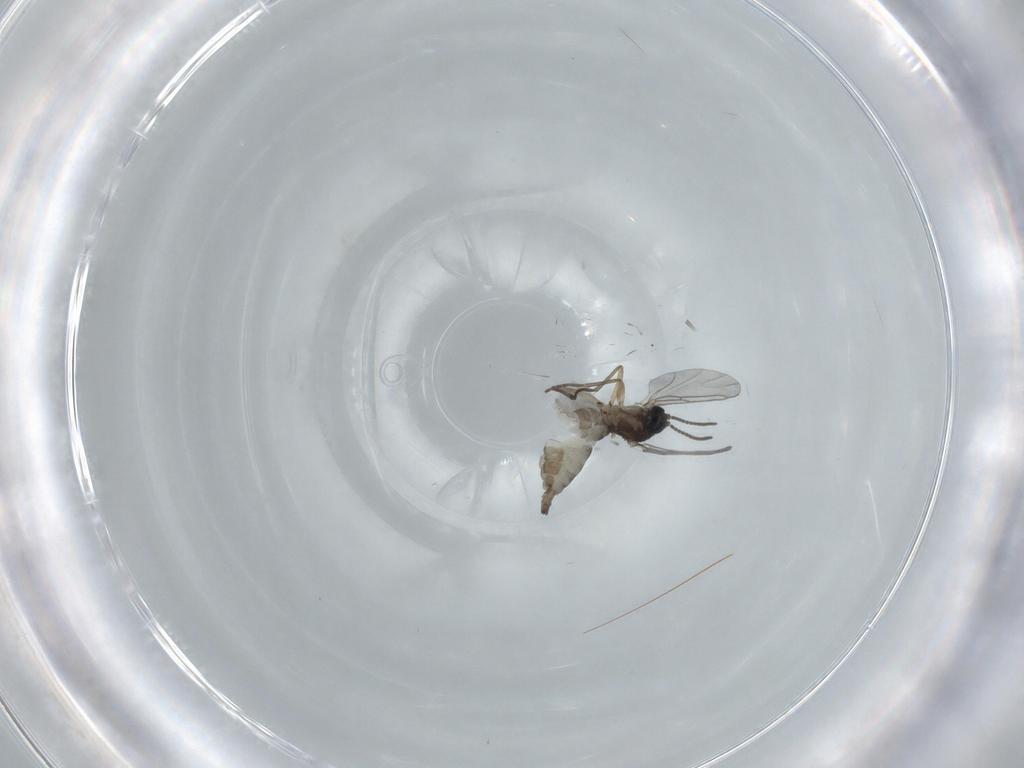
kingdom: Animalia
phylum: Arthropoda
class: Insecta
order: Diptera
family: Sciaridae
